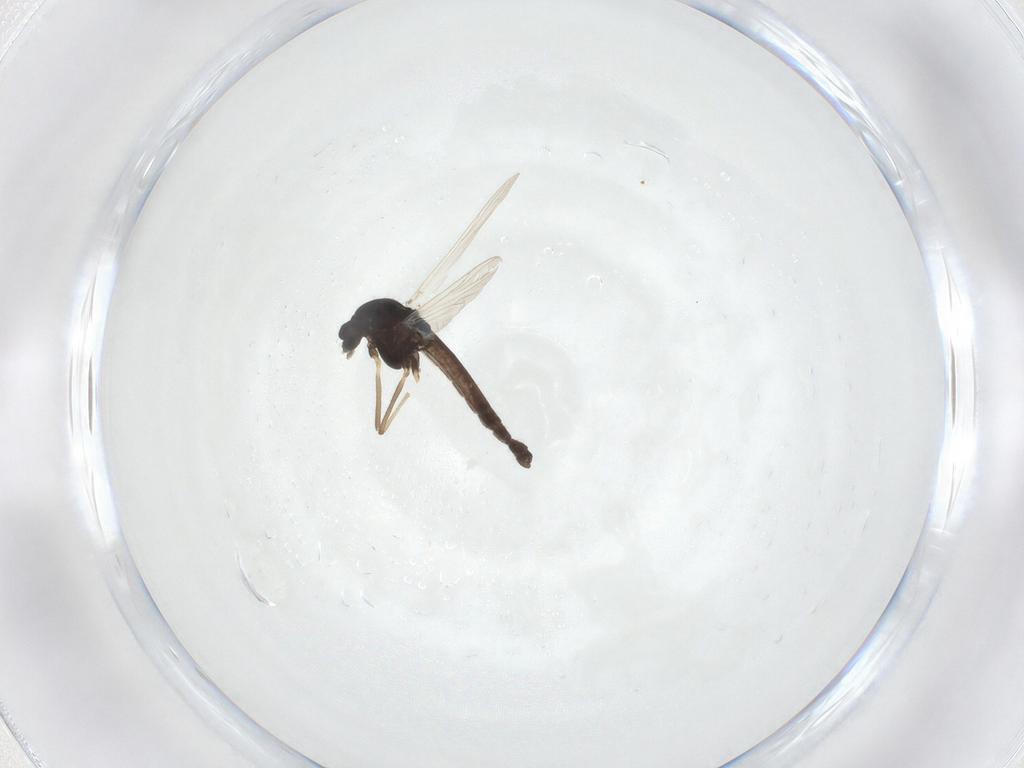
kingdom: Animalia
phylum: Arthropoda
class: Insecta
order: Diptera
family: Chironomidae
